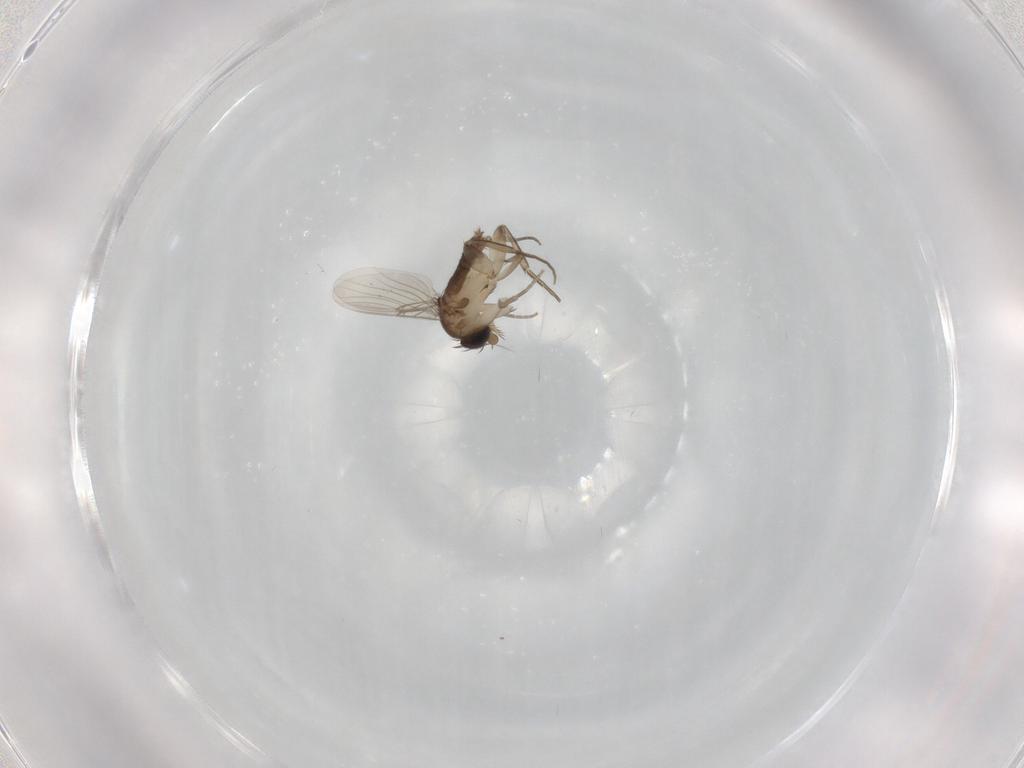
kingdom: Animalia
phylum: Arthropoda
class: Insecta
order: Diptera
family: Phoridae
